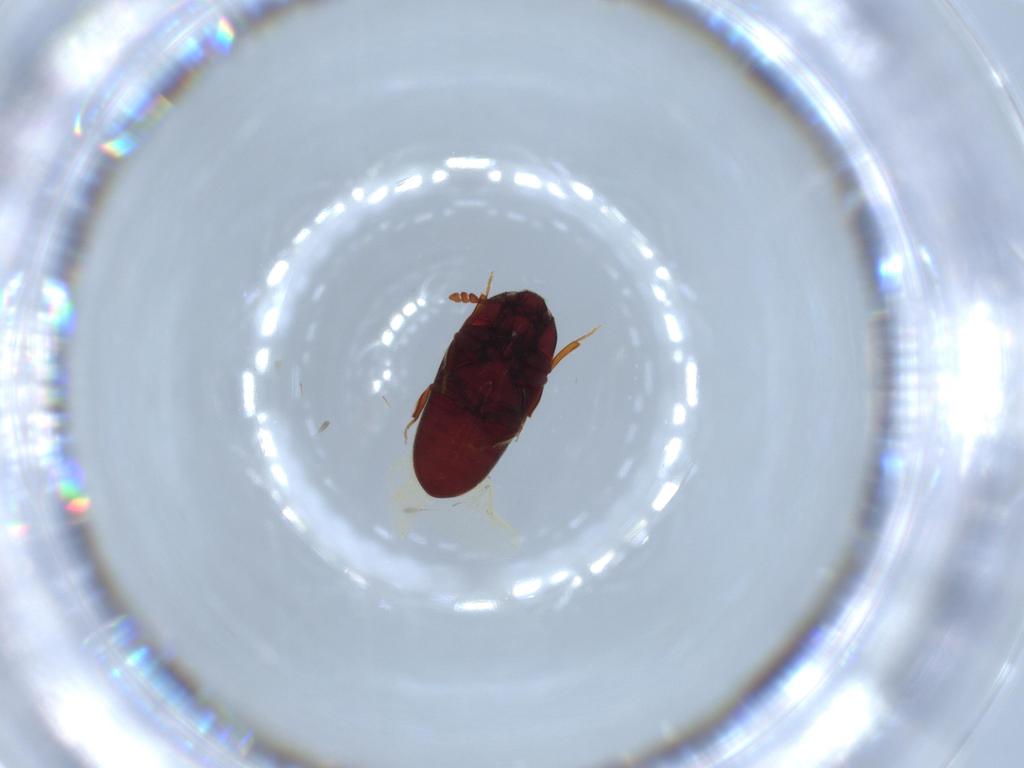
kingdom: Animalia
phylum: Arthropoda
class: Insecta
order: Coleoptera
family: Throscidae
